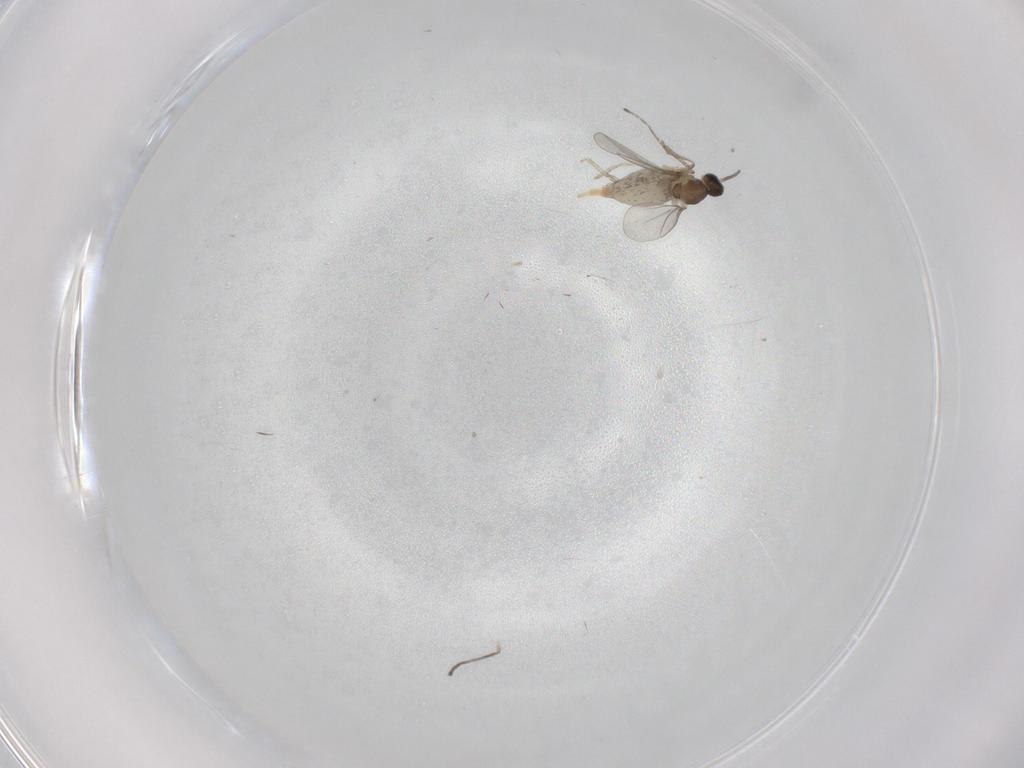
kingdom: Animalia
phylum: Arthropoda
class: Insecta
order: Diptera
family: Cecidomyiidae
